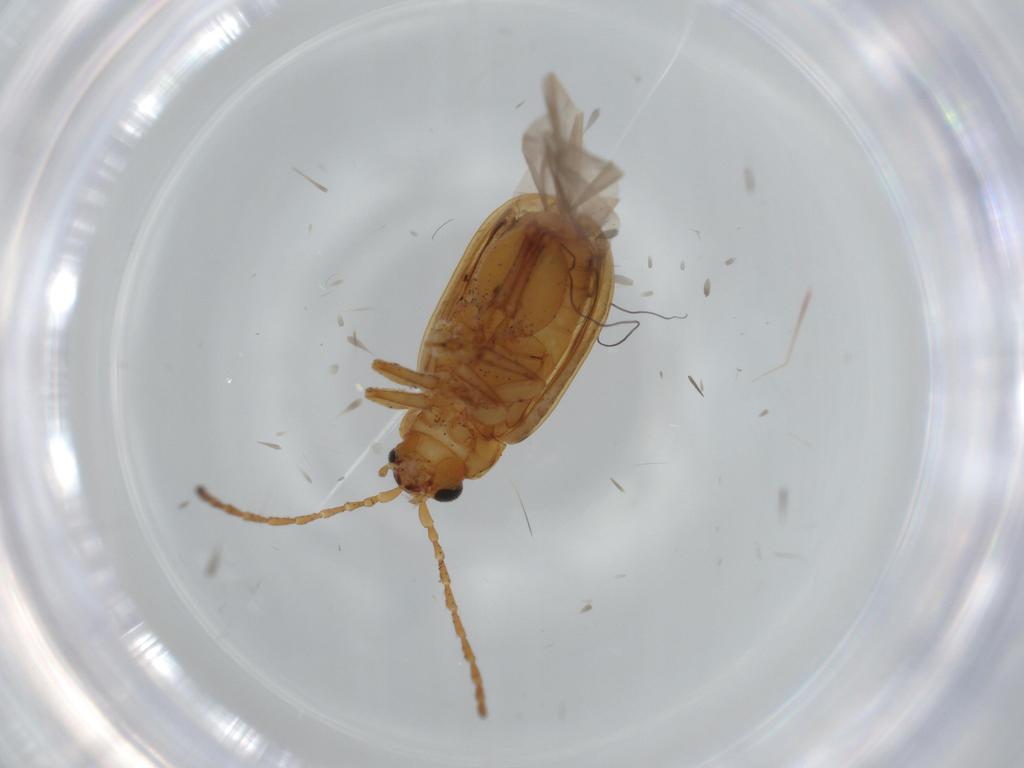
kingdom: Animalia
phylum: Arthropoda
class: Insecta
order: Coleoptera
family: Chrysomelidae
